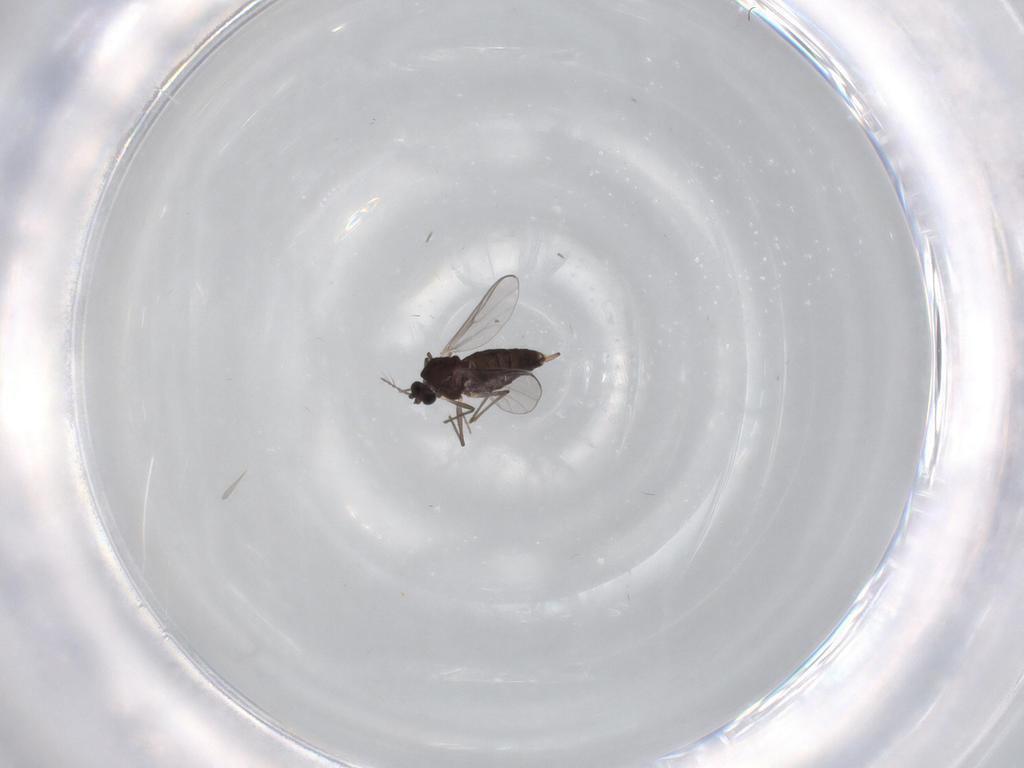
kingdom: Animalia
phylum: Arthropoda
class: Insecta
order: Diptera
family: Chironomidae
